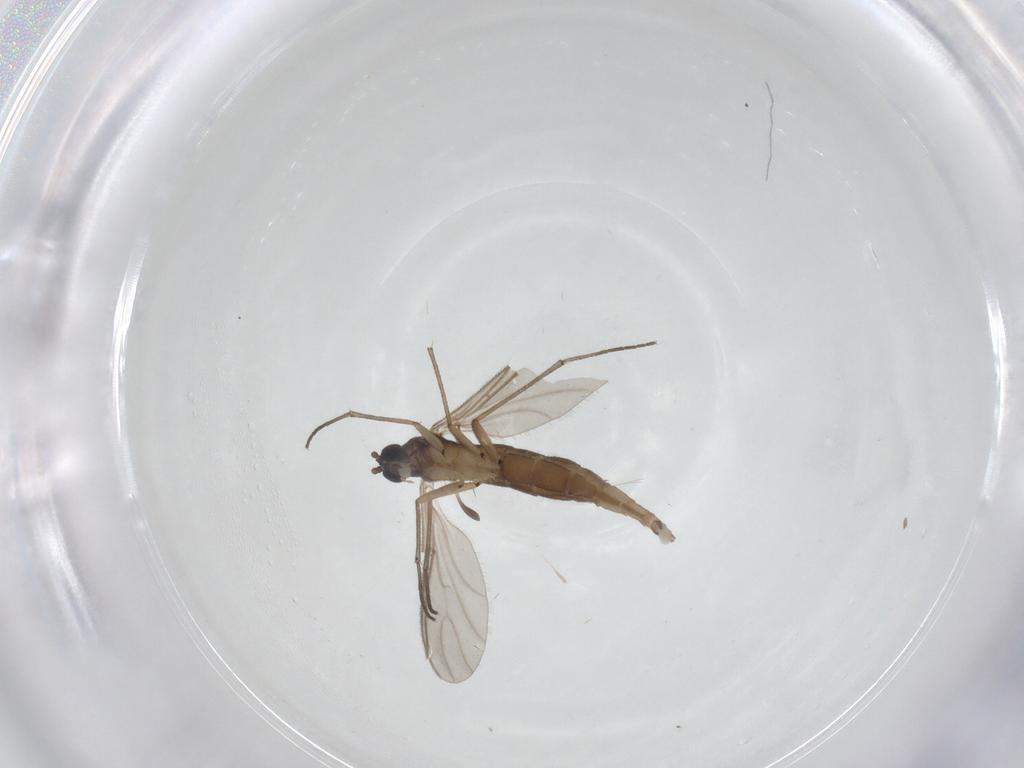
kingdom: Animalia
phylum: Arthropoda
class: Insecta
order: Diptera
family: Sciaridae
